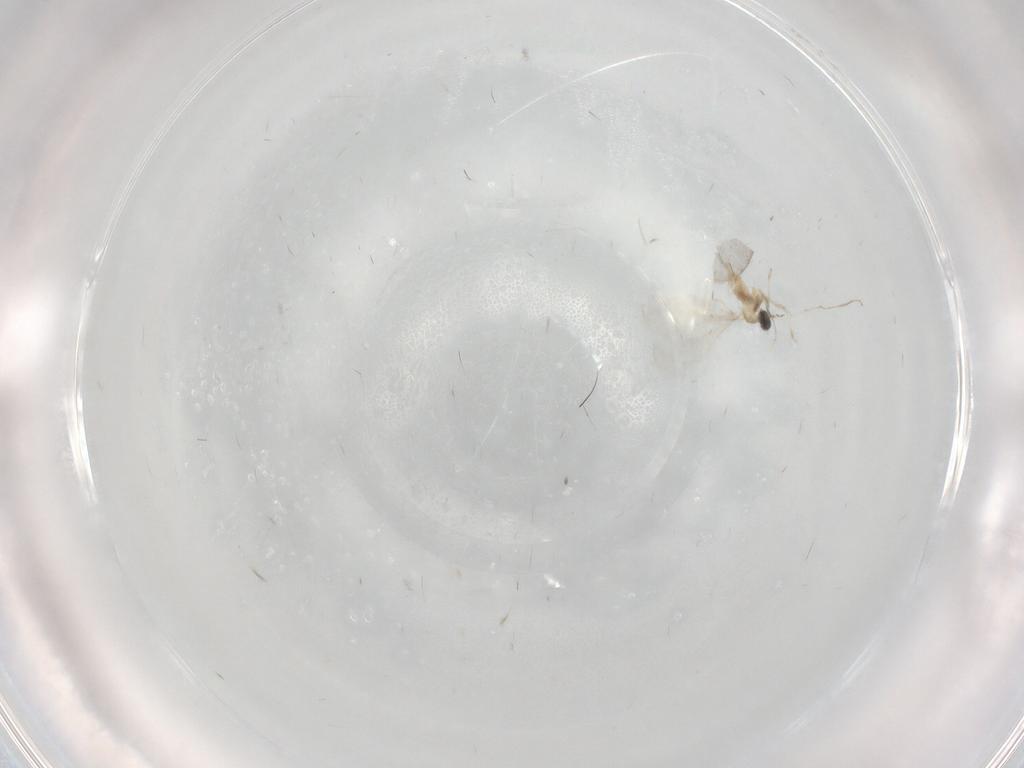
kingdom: Animalia
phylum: Arthropoda
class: Insecta
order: Diptera
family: Cecidomyiidae
